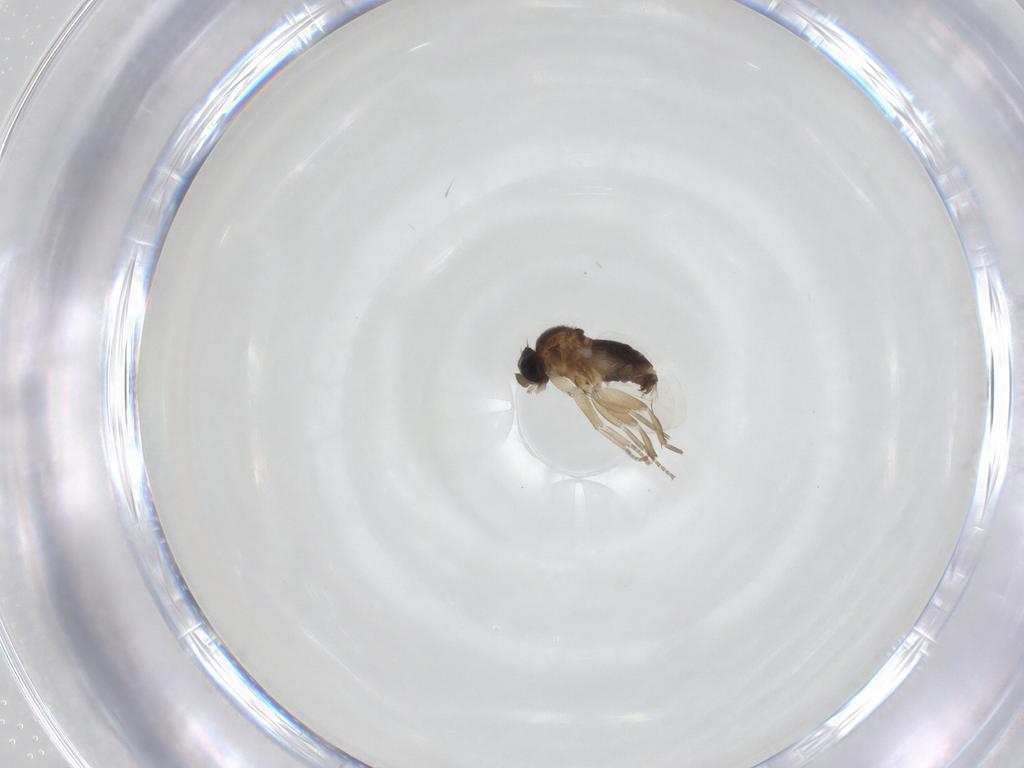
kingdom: Animalia
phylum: Arthropoda
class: Insecta
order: Diptera
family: Phoridae
